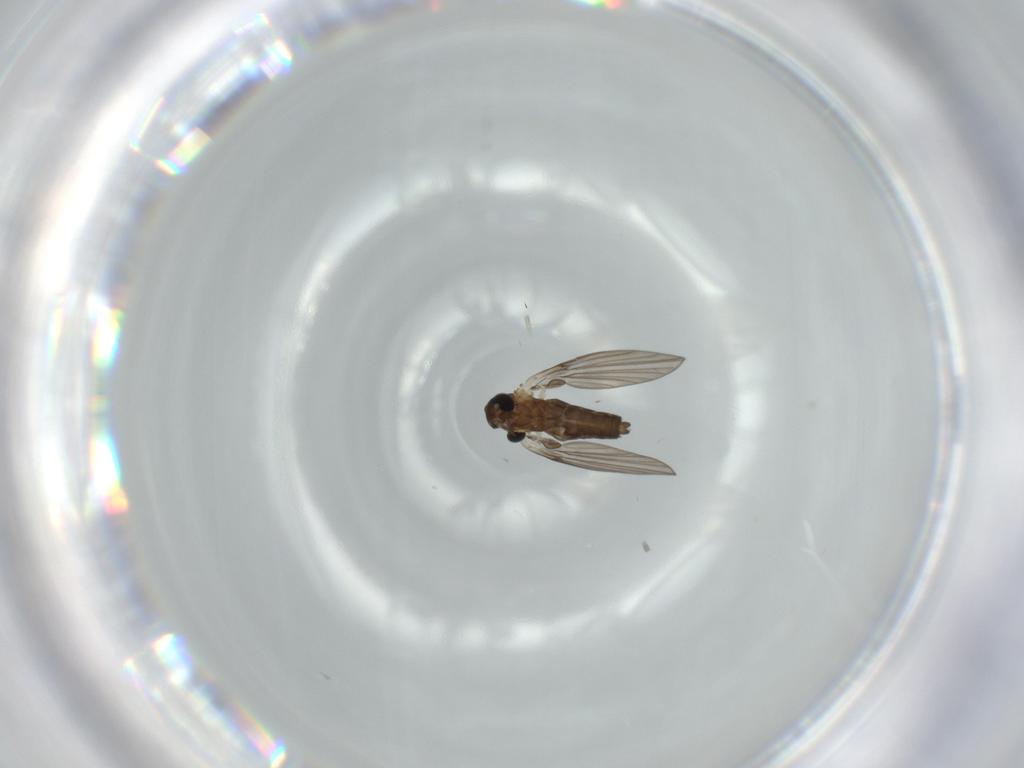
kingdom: Animalia
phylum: Arthropoda
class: Insecta
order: Diptera
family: Psychodidae
